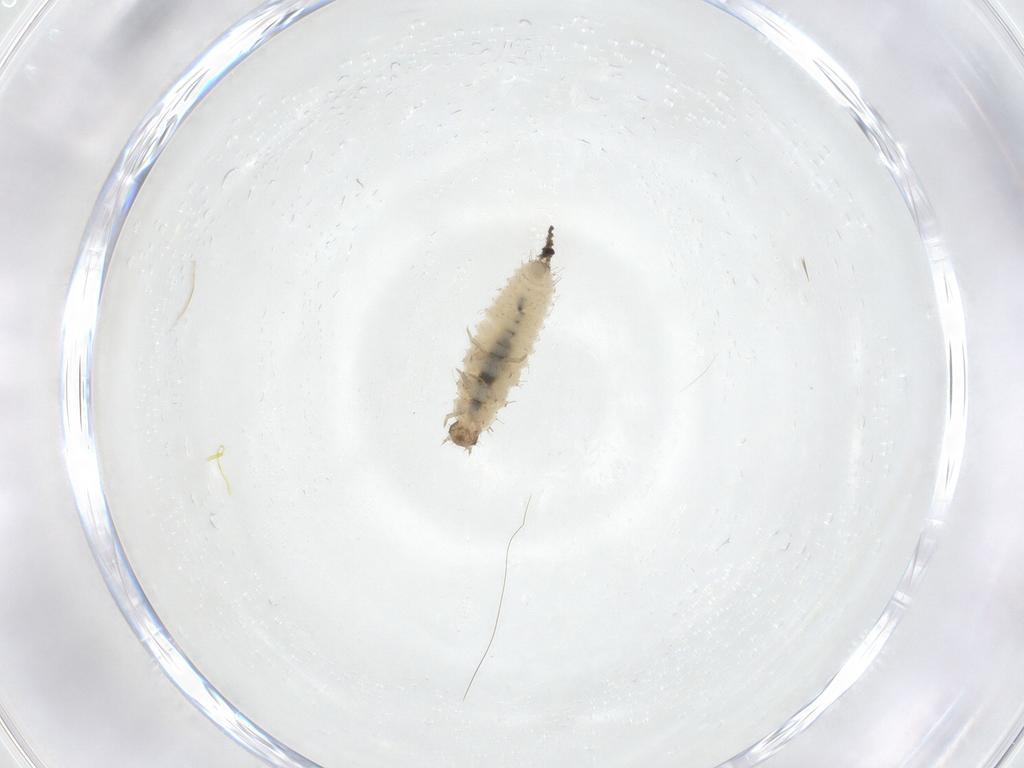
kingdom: Animalia
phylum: Arthropoda
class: Insecta
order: Coleoptera
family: Latridiidae
